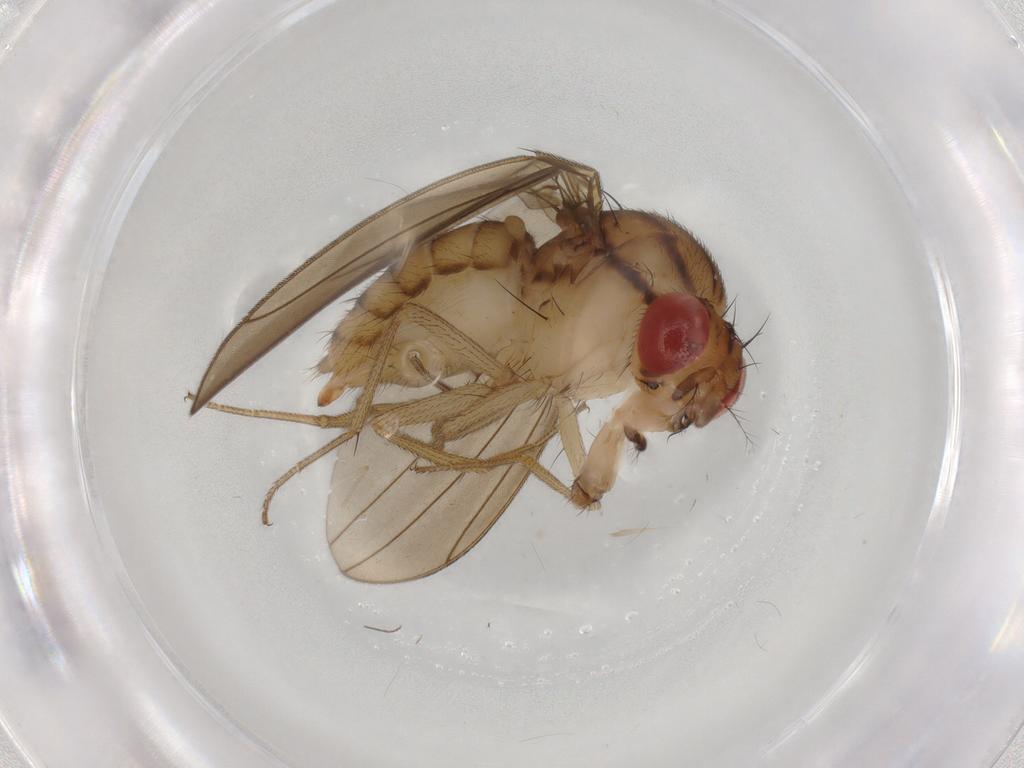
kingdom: Animalia
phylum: Arthropoda
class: Insecta
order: Diptera
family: Drosophilidae
